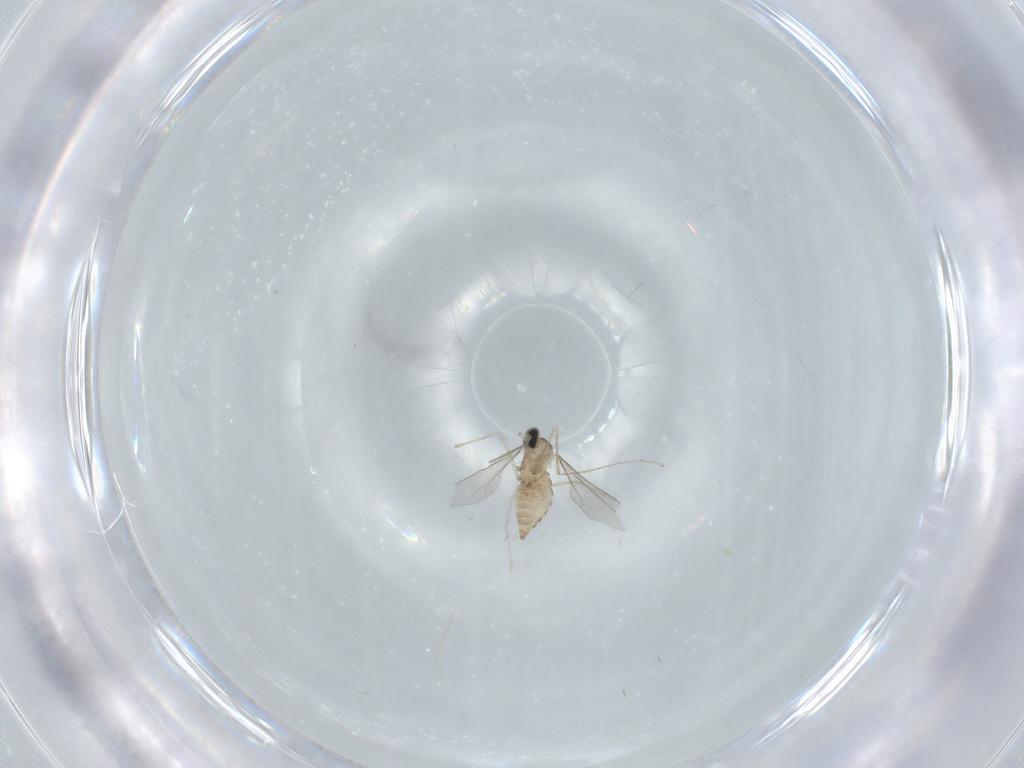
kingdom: Animalia
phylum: Arthropoda
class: Insecta
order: Diptera
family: Cecidomyiidae
